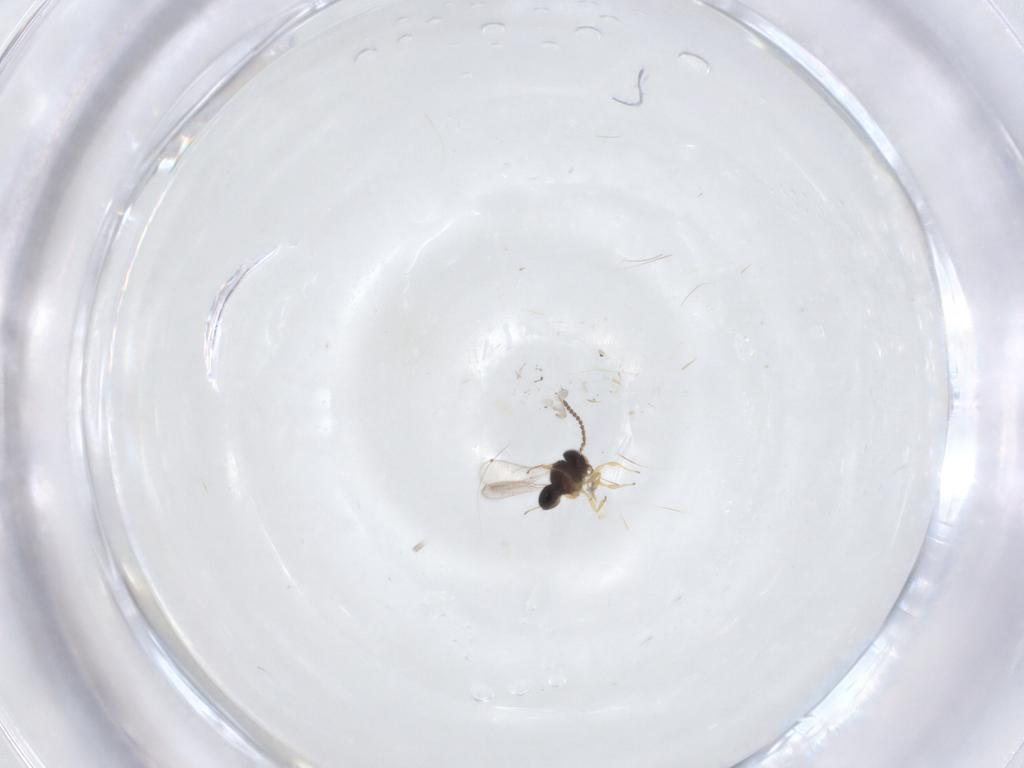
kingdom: Animalia
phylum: Arthropoda
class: Insecta
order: Hymenoptera
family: Scelionidae
